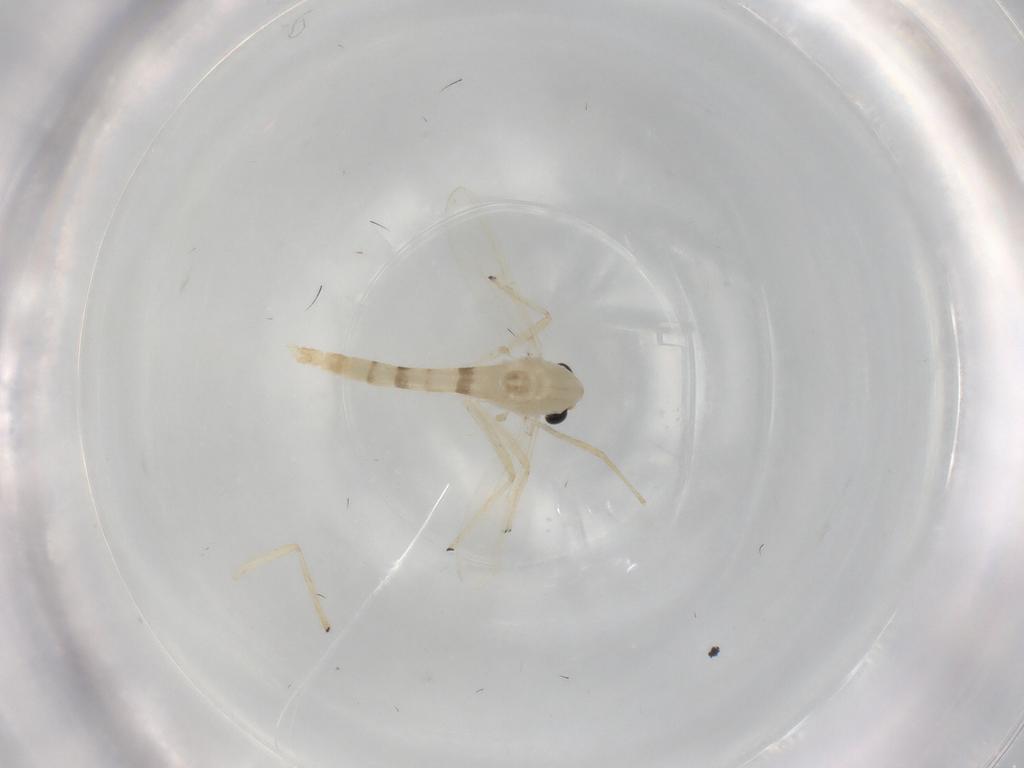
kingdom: Animalia
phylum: Arthropoda
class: Insecta
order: Diptera
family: Chironomidae
